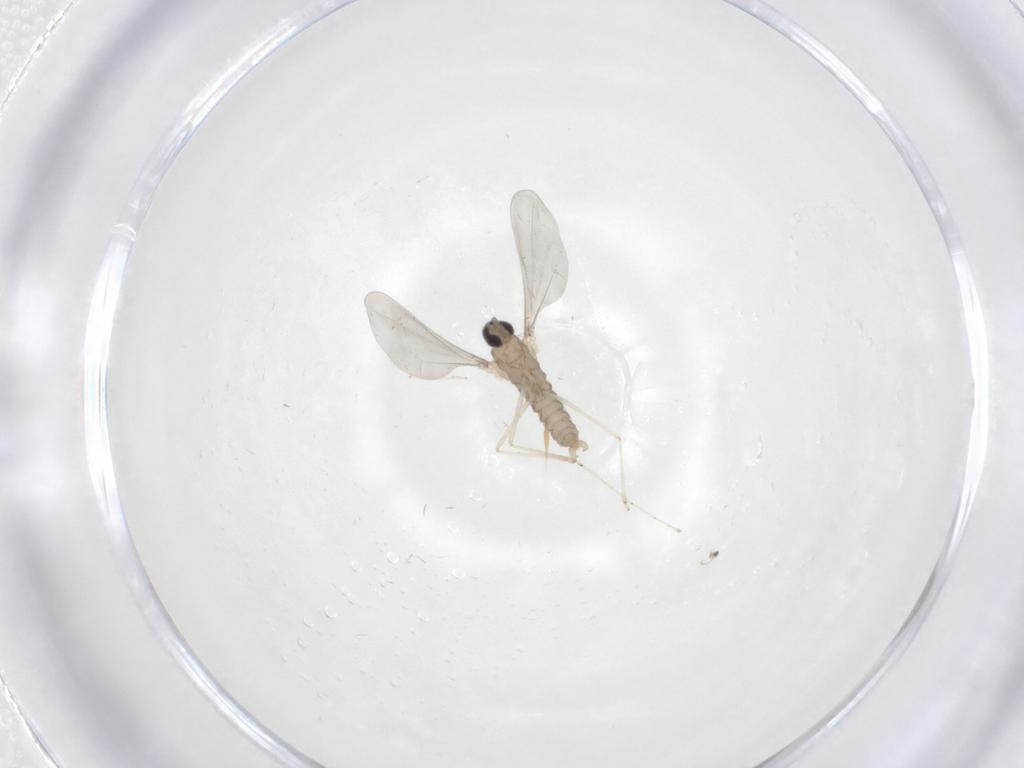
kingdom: Animalia
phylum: Arthropoda
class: Insecta
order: Diptera
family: Cecidomyiidae
